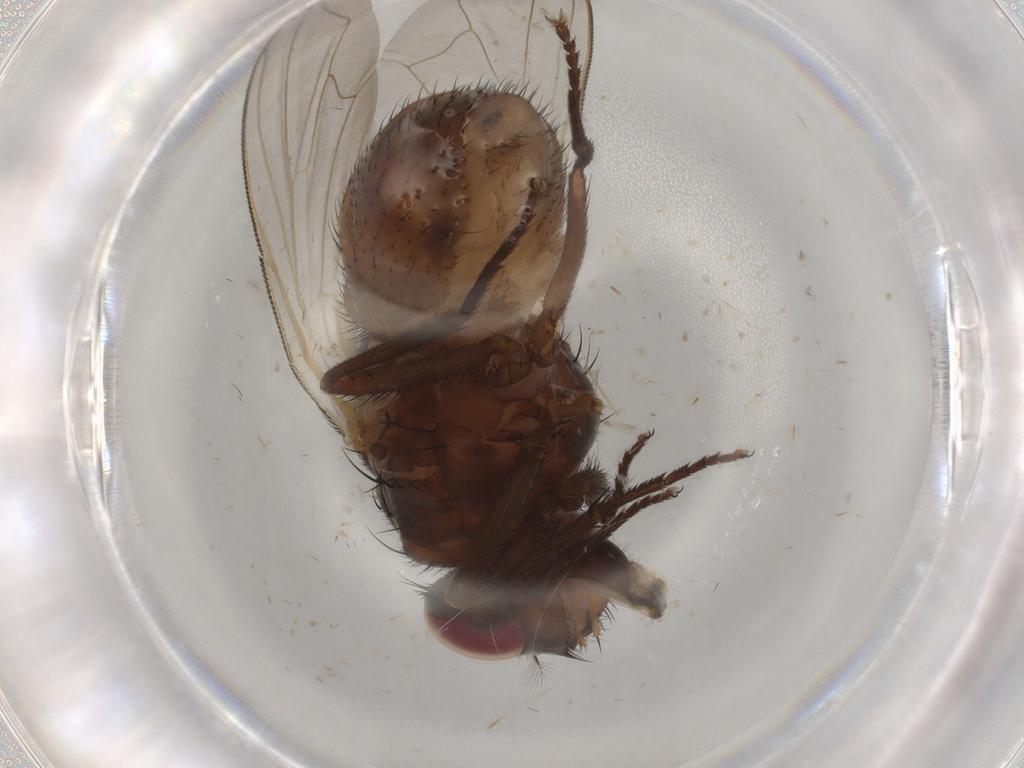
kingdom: Animalia
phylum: Arthropoda
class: Insecta
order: Diptera
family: Muscidae
